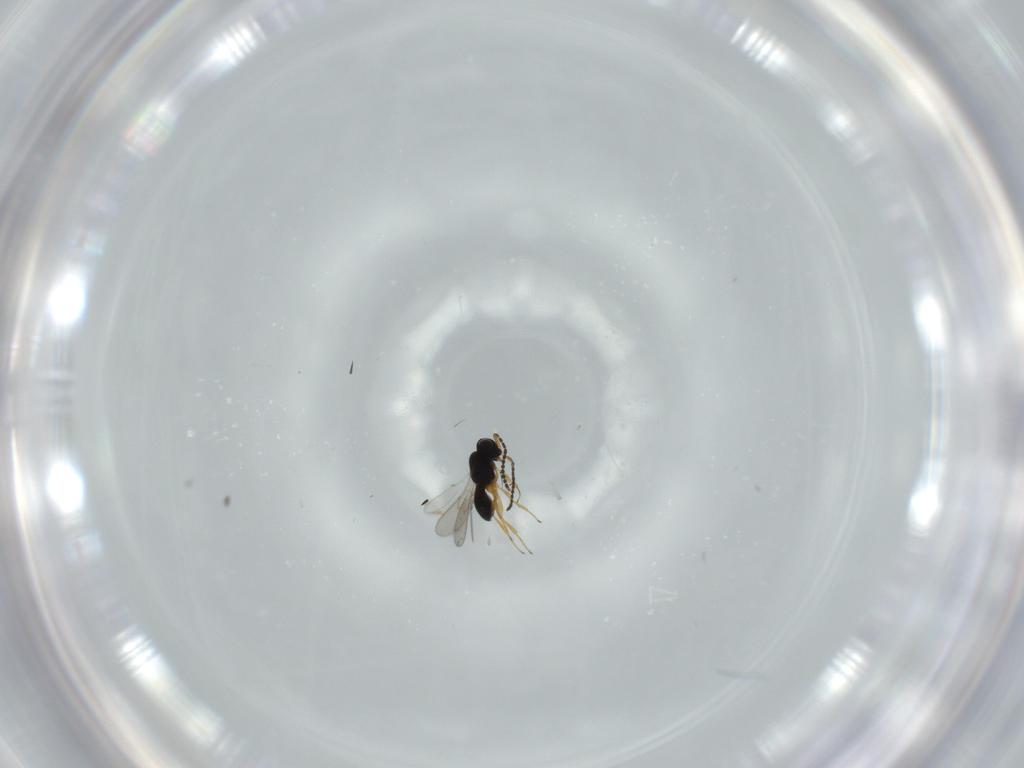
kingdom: Animalia
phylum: Arthropoda
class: Insecta
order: Hymenoptera
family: Scelionidae
